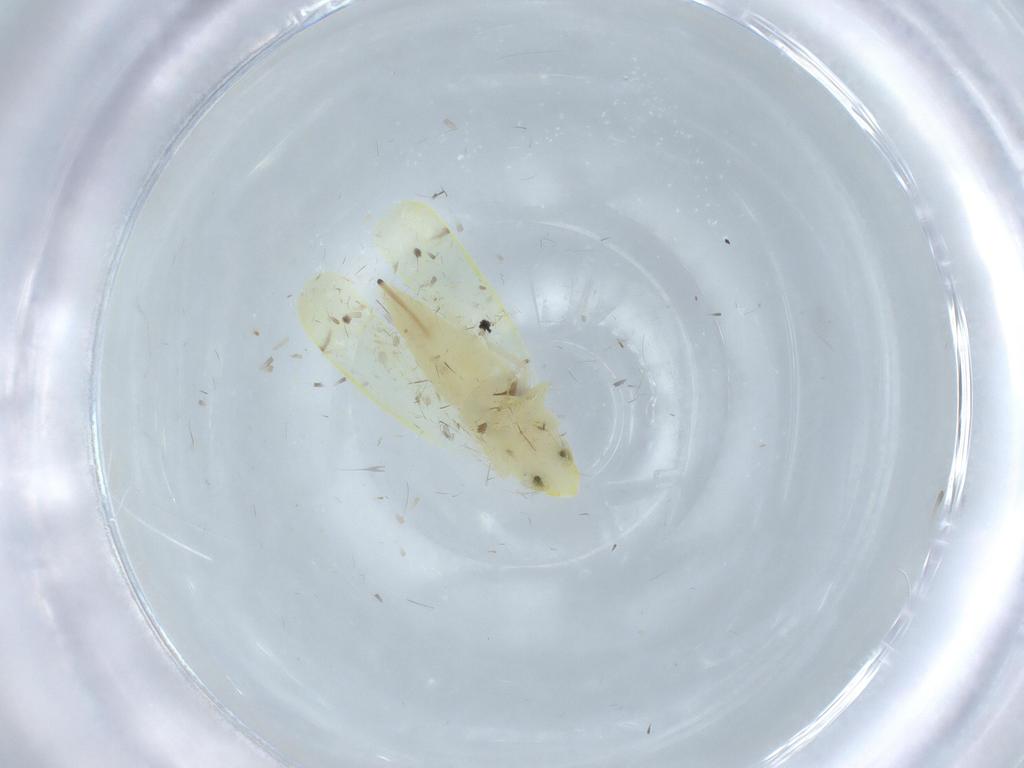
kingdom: Animalia
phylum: Arthropoda
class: Insecta
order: Hemiptera
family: Cicadellidae
